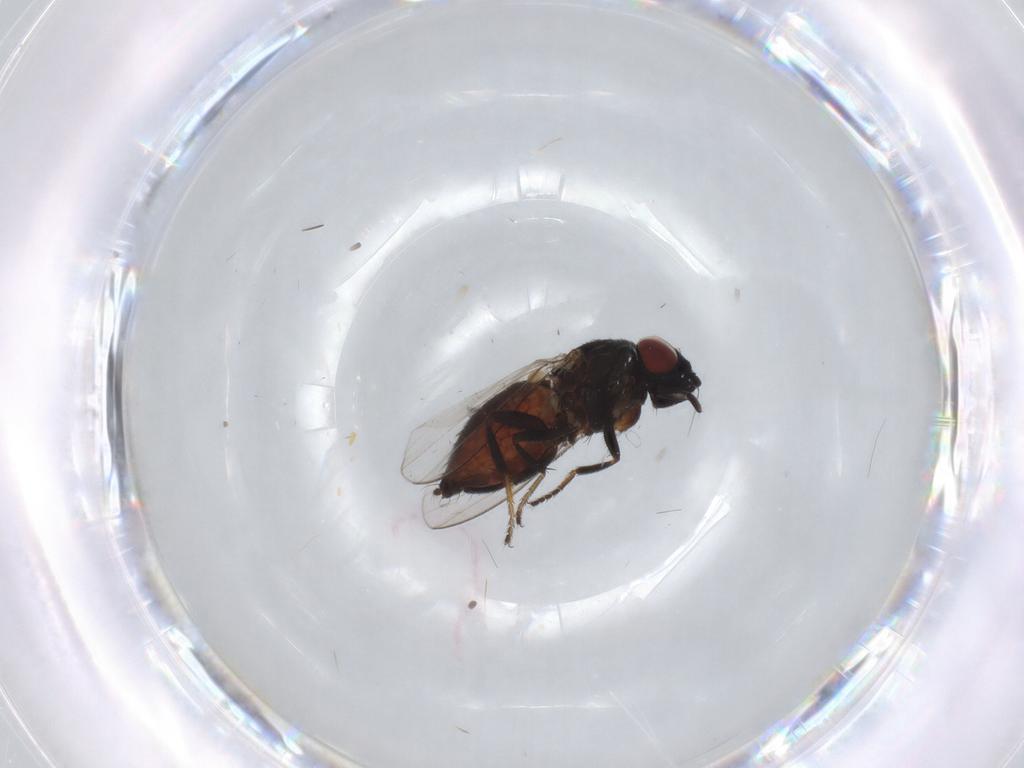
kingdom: Animalia
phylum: Arthropoda
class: Insecta
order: Diptera
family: Milichiidae
